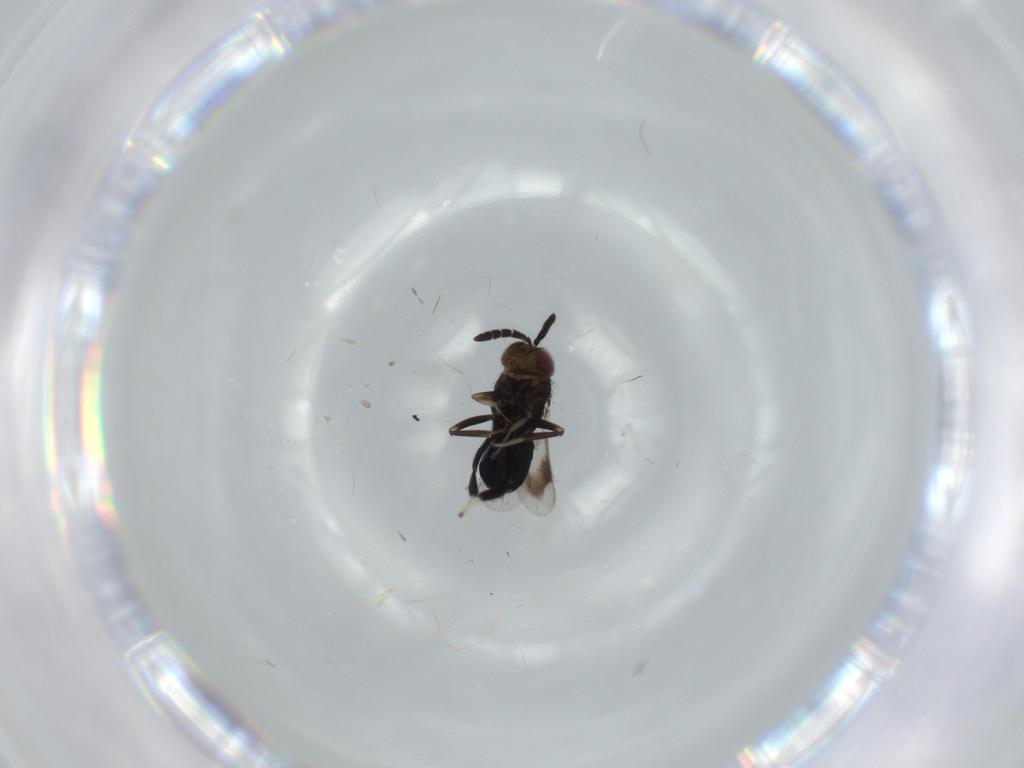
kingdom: Animalia
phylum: Arthropoda
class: Insecta
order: Hymenoptera
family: Aphelinidae
